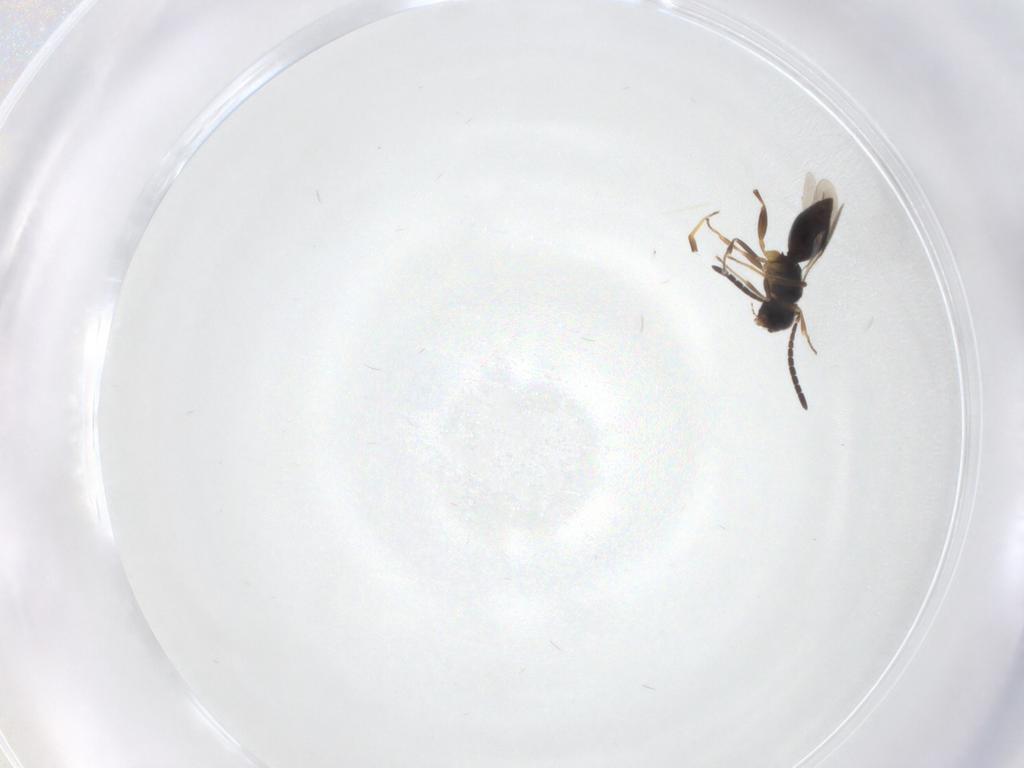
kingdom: Animalia
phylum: Arthropoda
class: Insecta
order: Hymenoptera
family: Megaspilidae
